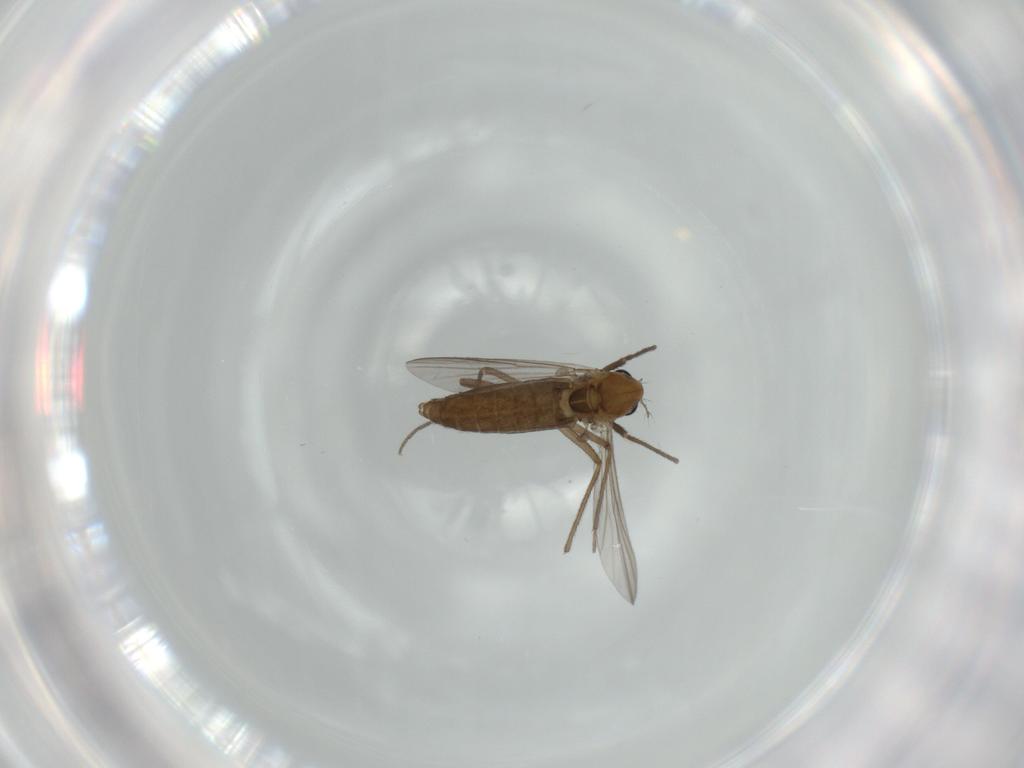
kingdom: Animalia
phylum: Arthropoda
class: Insecta
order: Diptera
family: Chironomidae
